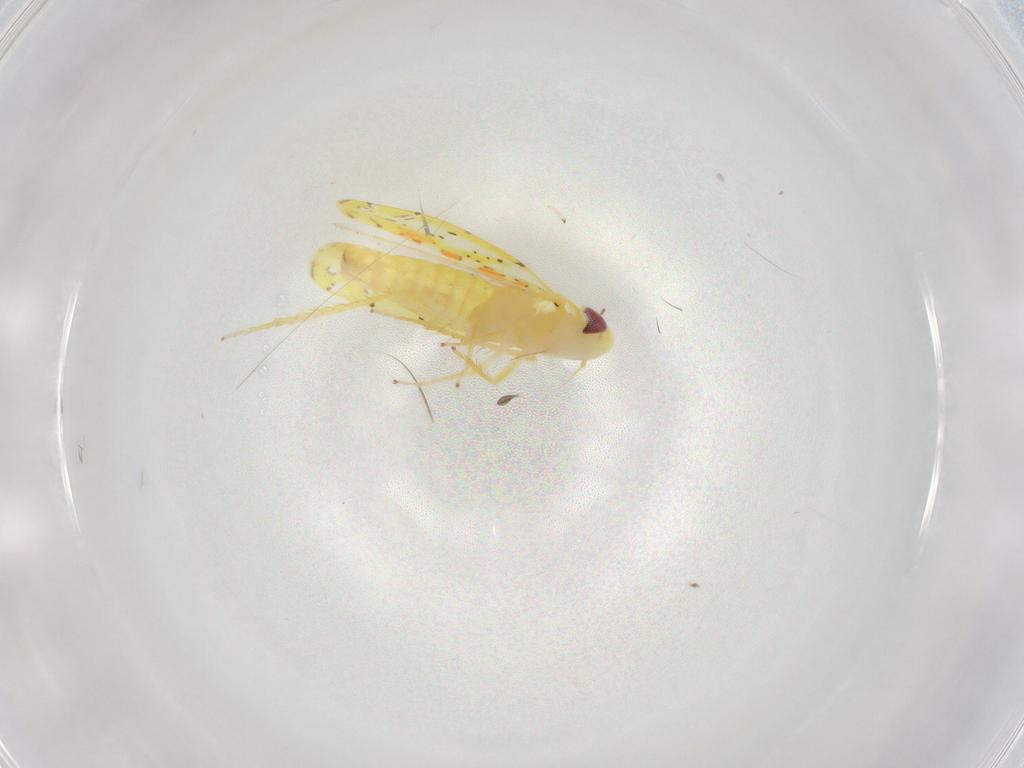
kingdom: Animalia
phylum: Arthropoda
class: Insecta
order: Hemiptera
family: Cicadellidae
